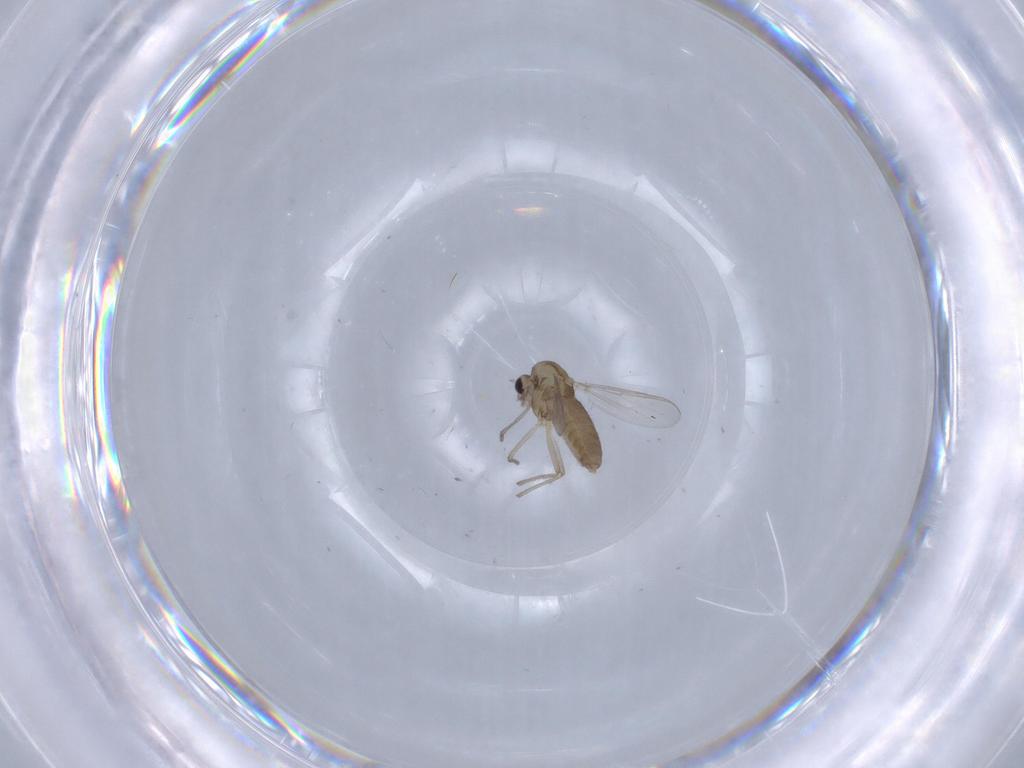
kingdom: Animalia
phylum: Arthropoda
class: Insecta
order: Diptera
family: Chironomidae
